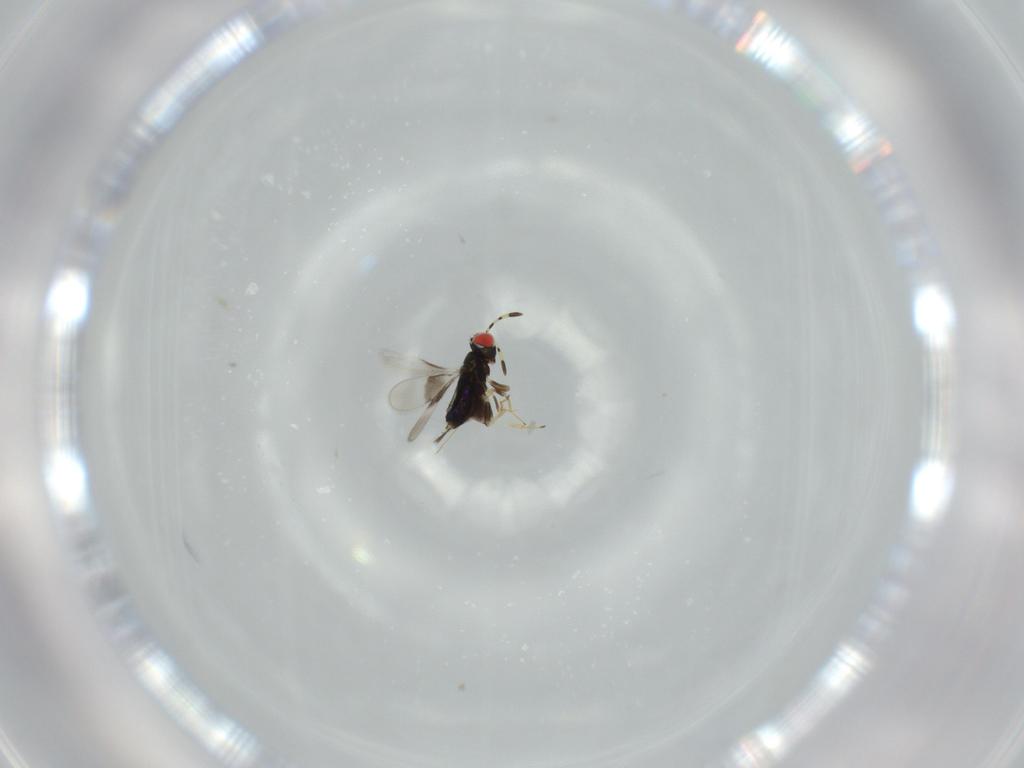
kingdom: Animalia
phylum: Arthropoda
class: Insecta
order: Hymenoptera
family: Azotidae
